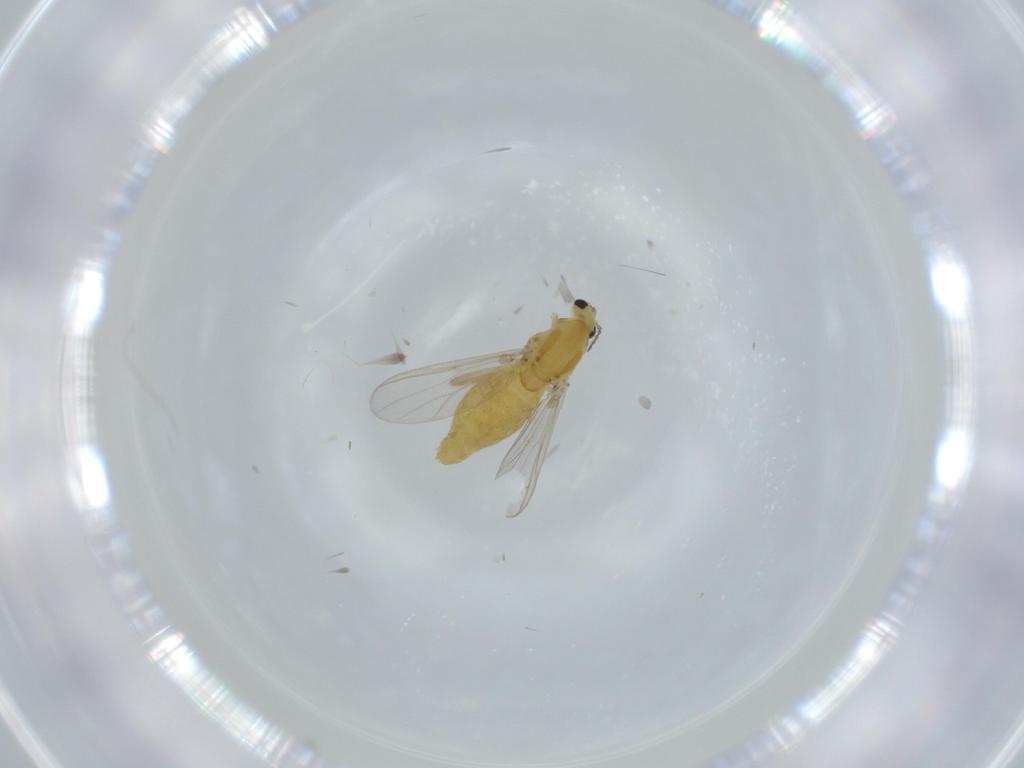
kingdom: Animalia
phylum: Arthropoda
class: Insecta
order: Diptera
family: Chironomidae
